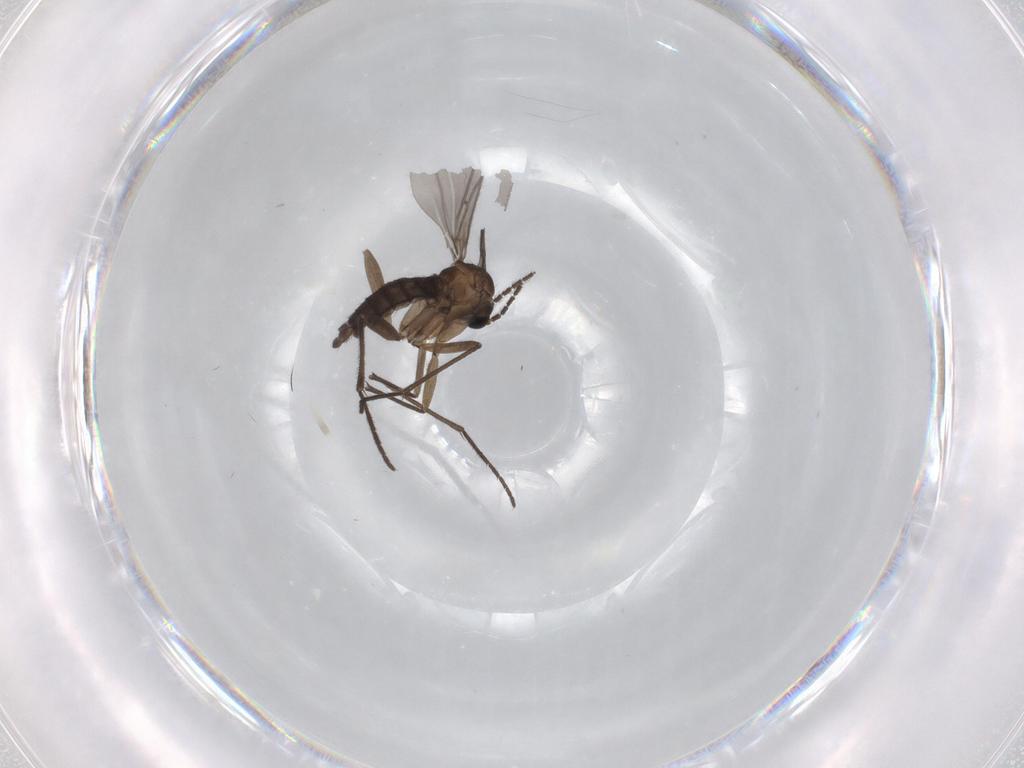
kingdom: Animalia
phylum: Arthropoda
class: Insecta
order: Diptera
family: Sciaridae
